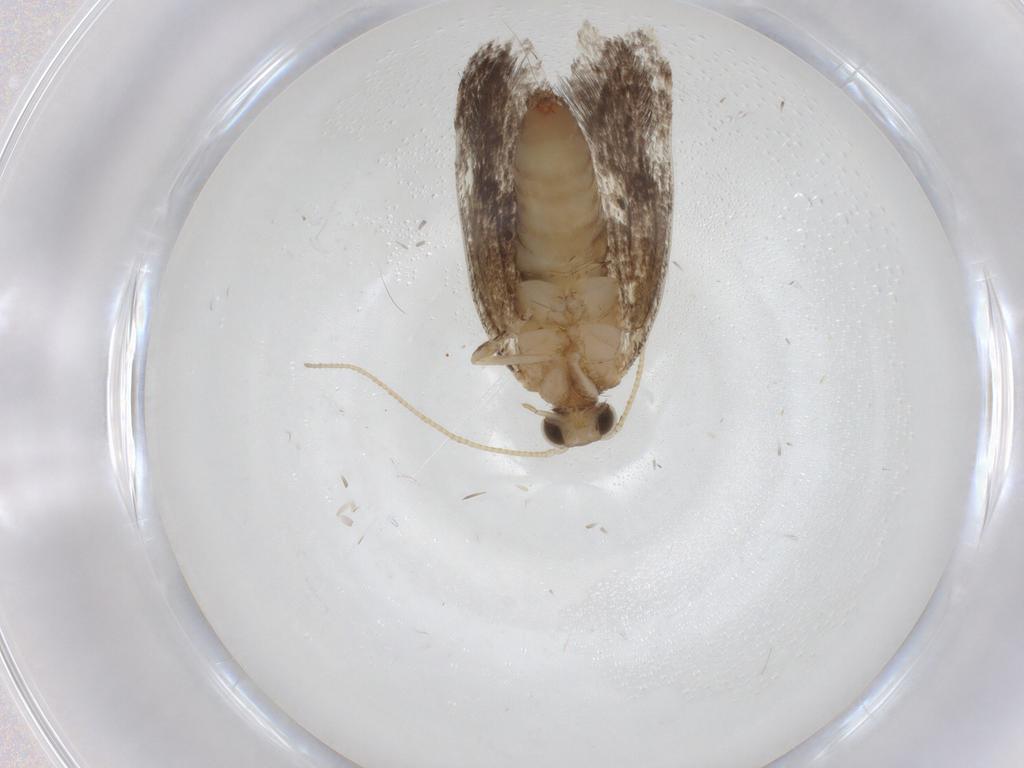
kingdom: Animalia
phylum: Arthropoda
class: Insecta
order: Lepidoptera
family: Tineidae
